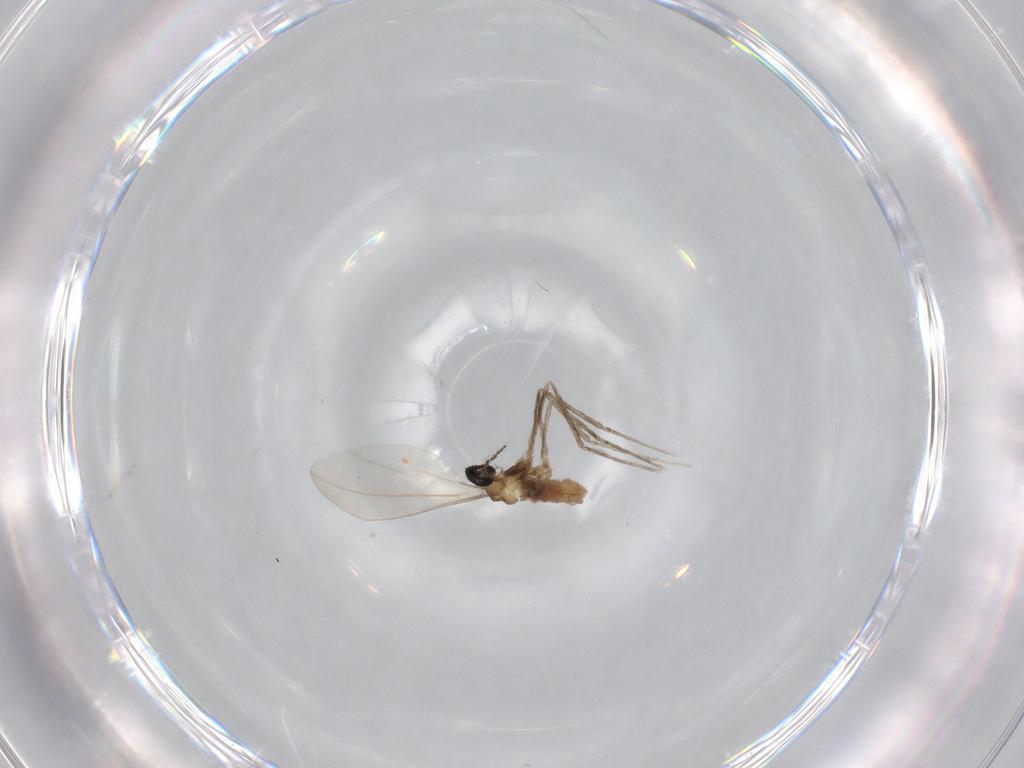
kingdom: Animalia
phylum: Arthropoda
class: Insecta
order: Diptera
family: Cecidomyiidae
